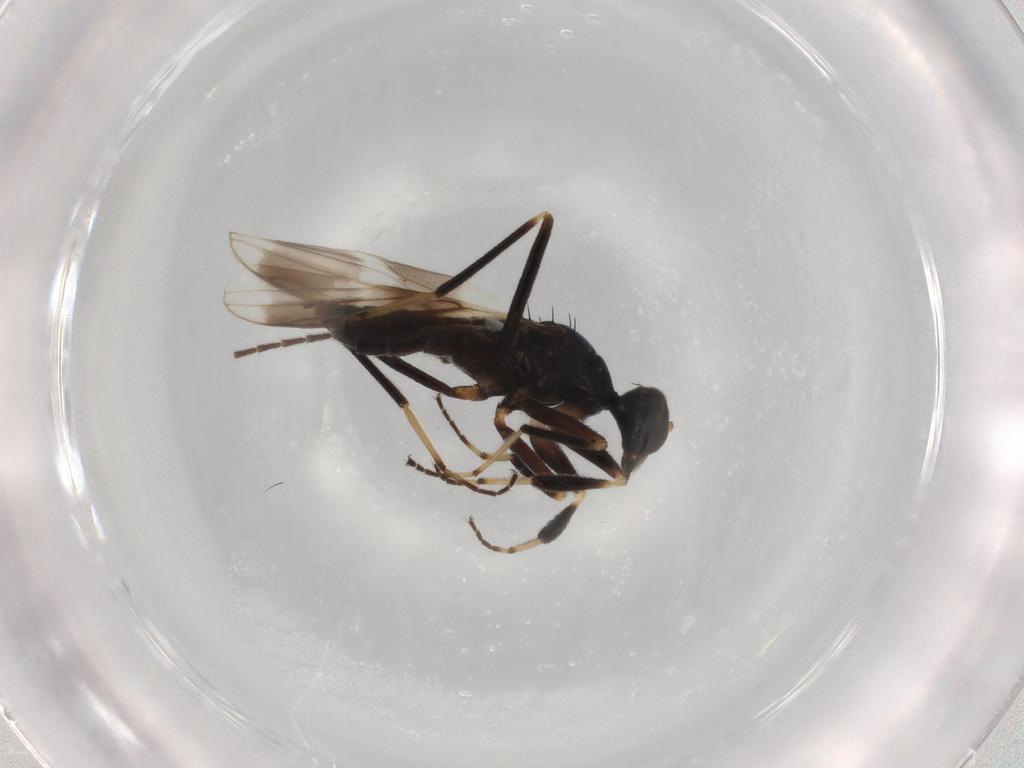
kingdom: Animalia
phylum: Arthropoda
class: Insecta
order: Diptera
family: Hybotidae
